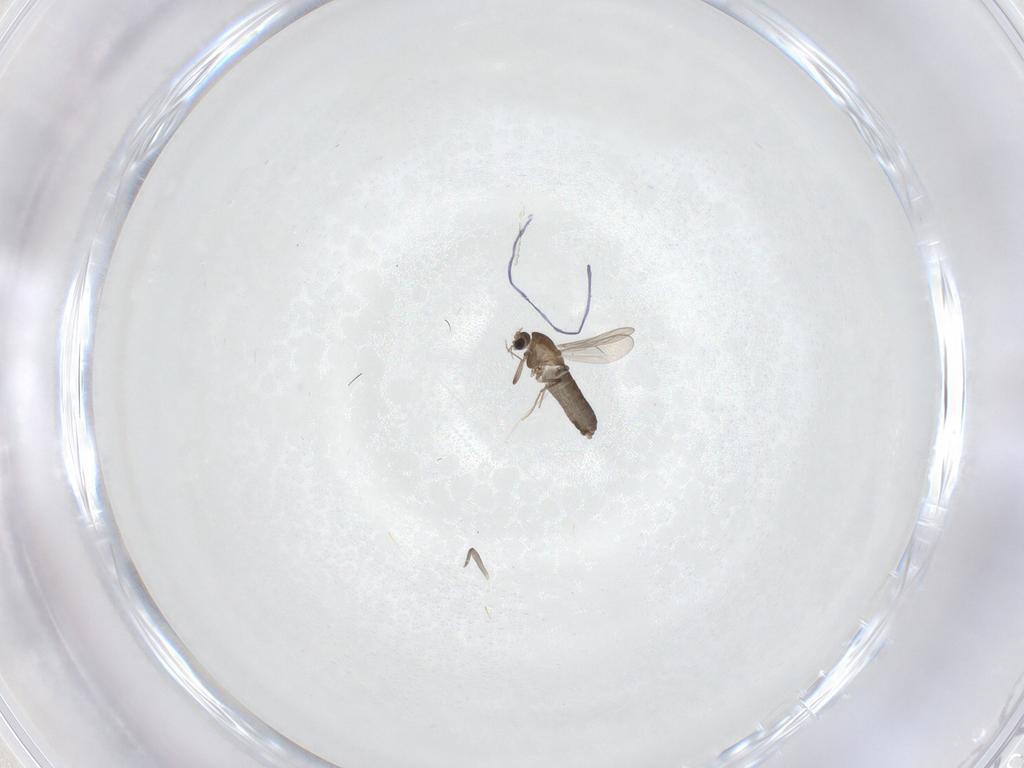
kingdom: Animalia
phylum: Arthropoda
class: Insecta
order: Diptera
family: Chironomidae
